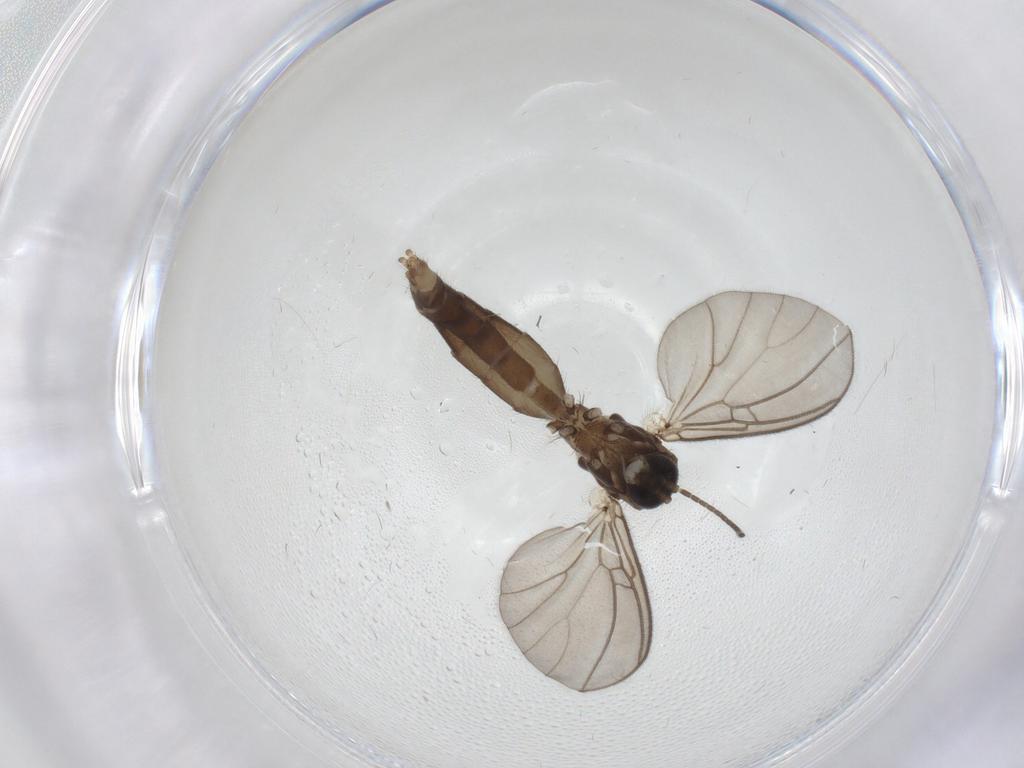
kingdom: Animalia
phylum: Arthropoda
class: Insecta
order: Diptera
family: Mycetophilidae
